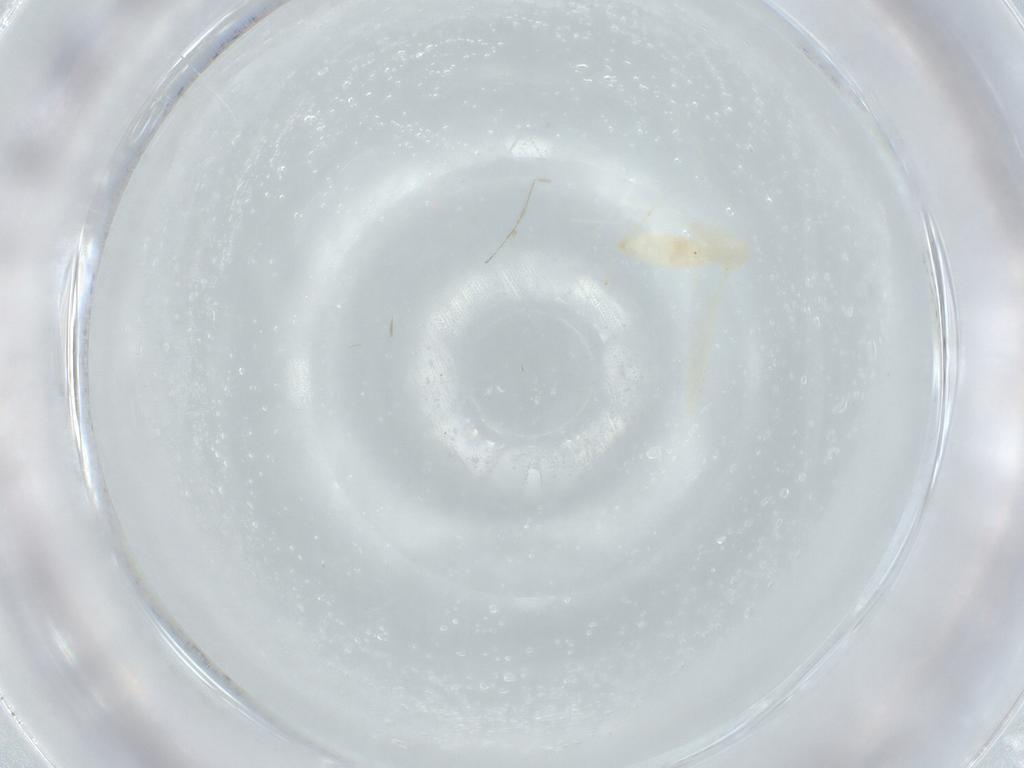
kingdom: Animalia
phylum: Arthropoda
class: Insecta
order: Diptera
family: Cecidomyiidae
